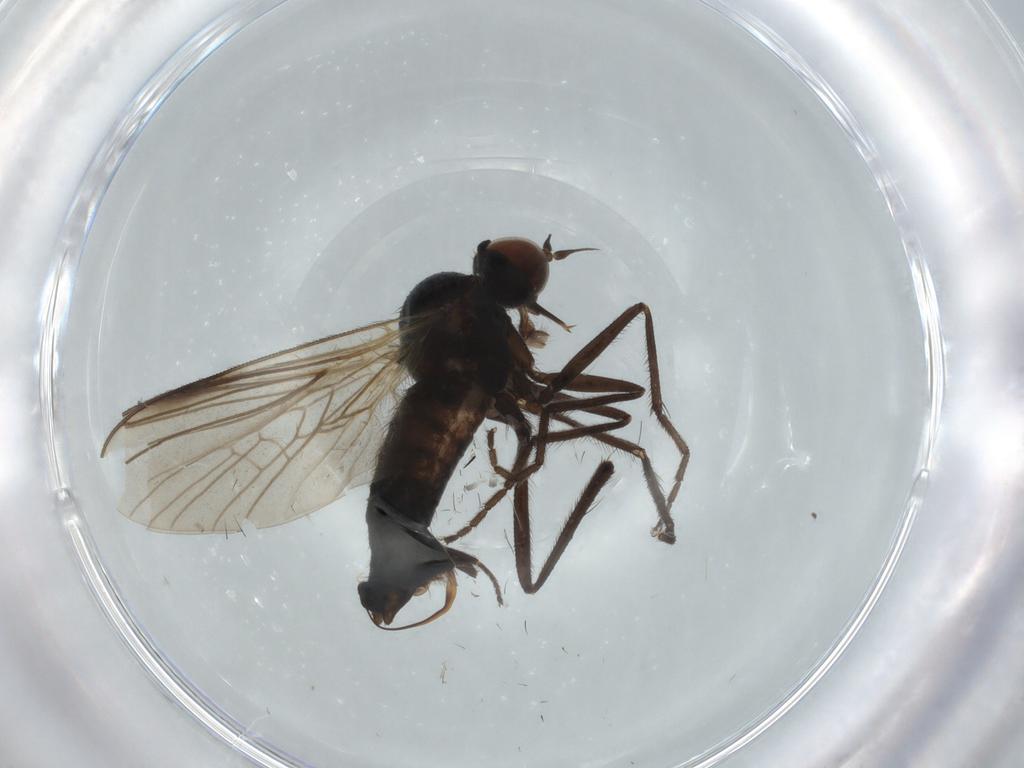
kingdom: Animalia
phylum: Arthropoda
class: Insecta
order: Diptera
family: Empididae
